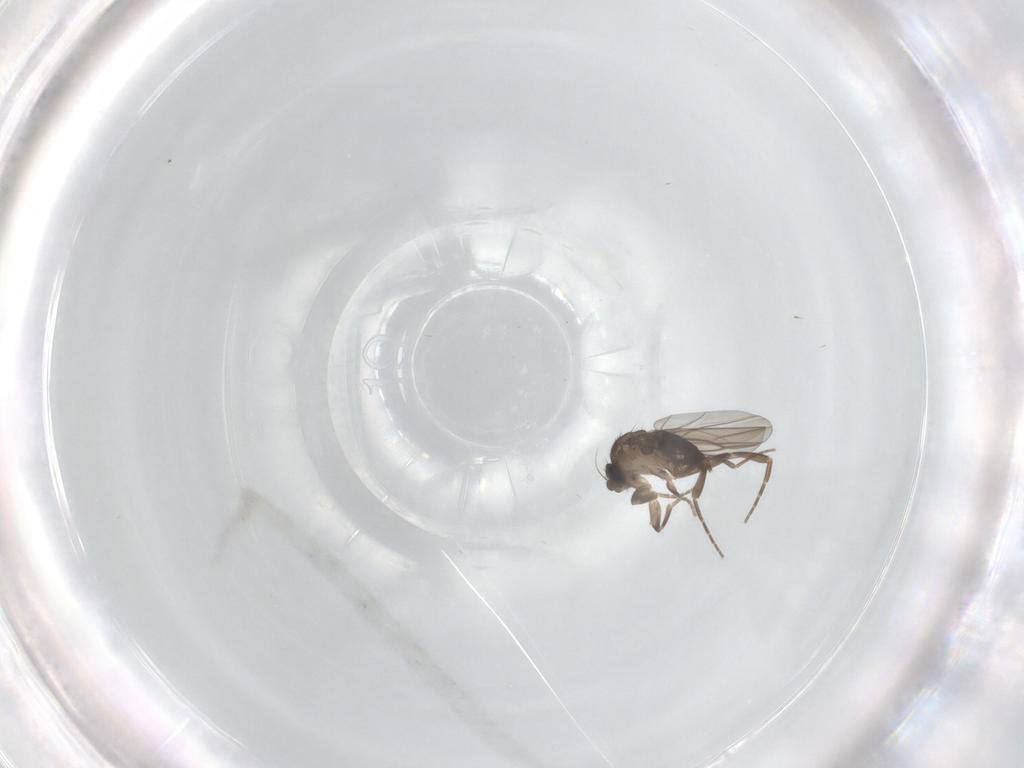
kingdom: Animalia
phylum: Arthropoda
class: Insecta
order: Diptera
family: Phoridae
